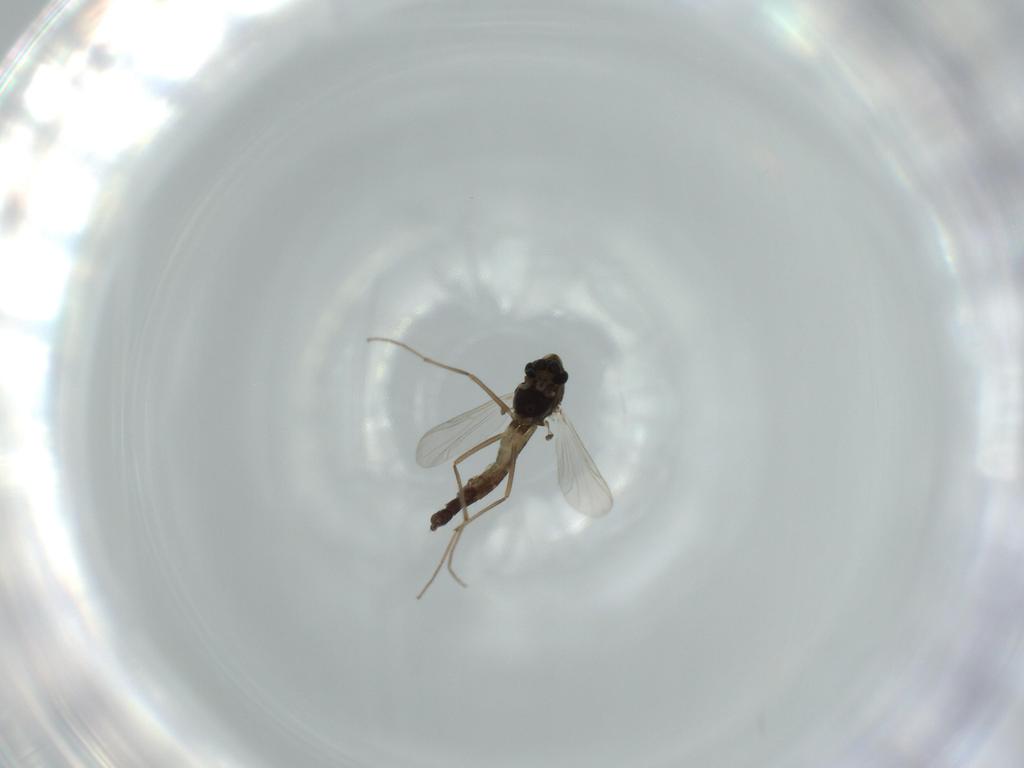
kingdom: Animalia
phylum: Arthropoda
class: Insecta
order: Diptera
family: Chironomidae
